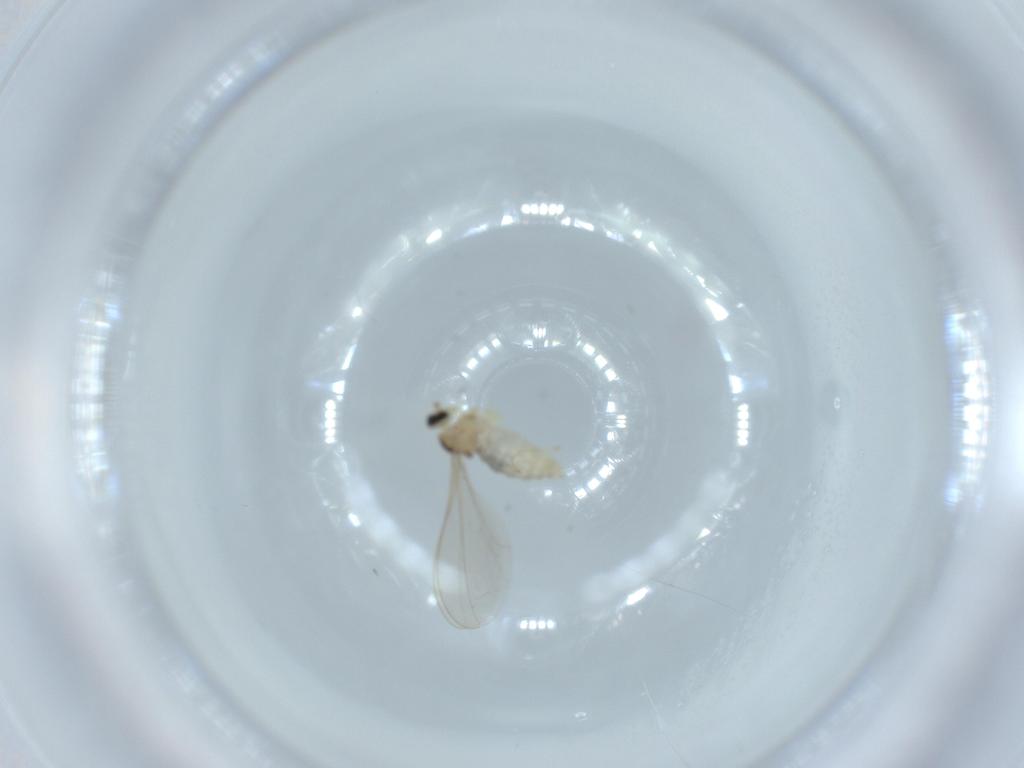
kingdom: Animalia
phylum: Arthropoda
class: Insecta
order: Diptera
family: Cecidomyiidae
